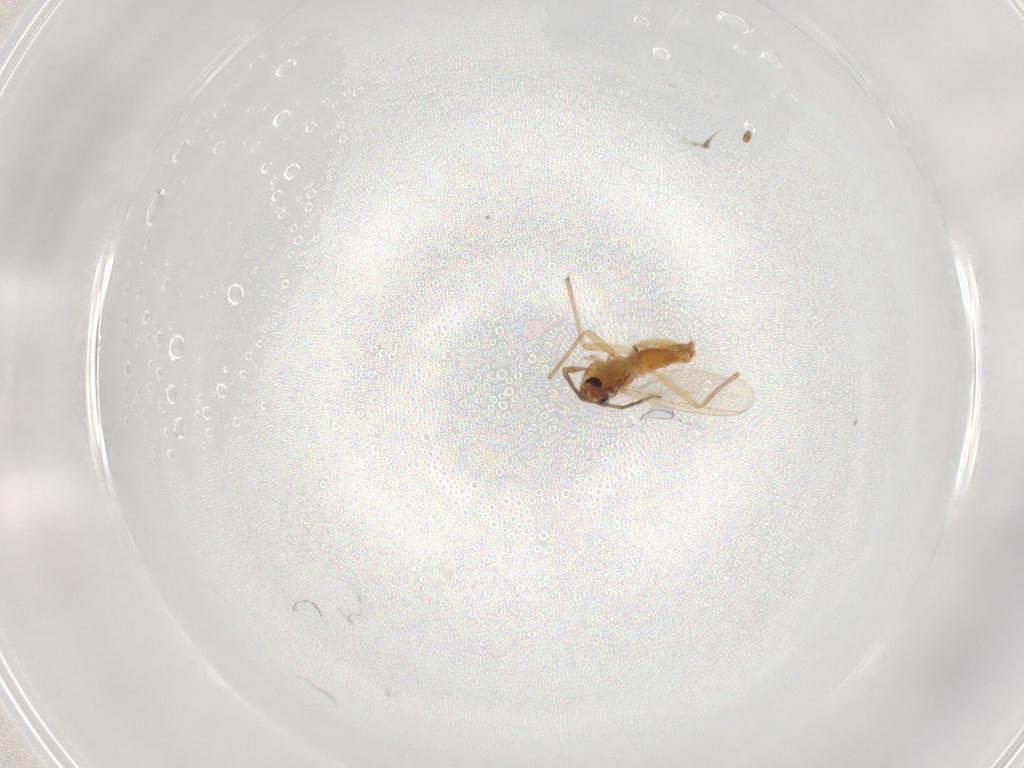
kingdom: Animalia
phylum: Arthropoda
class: Insecta
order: Diptera
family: Chironomidae
